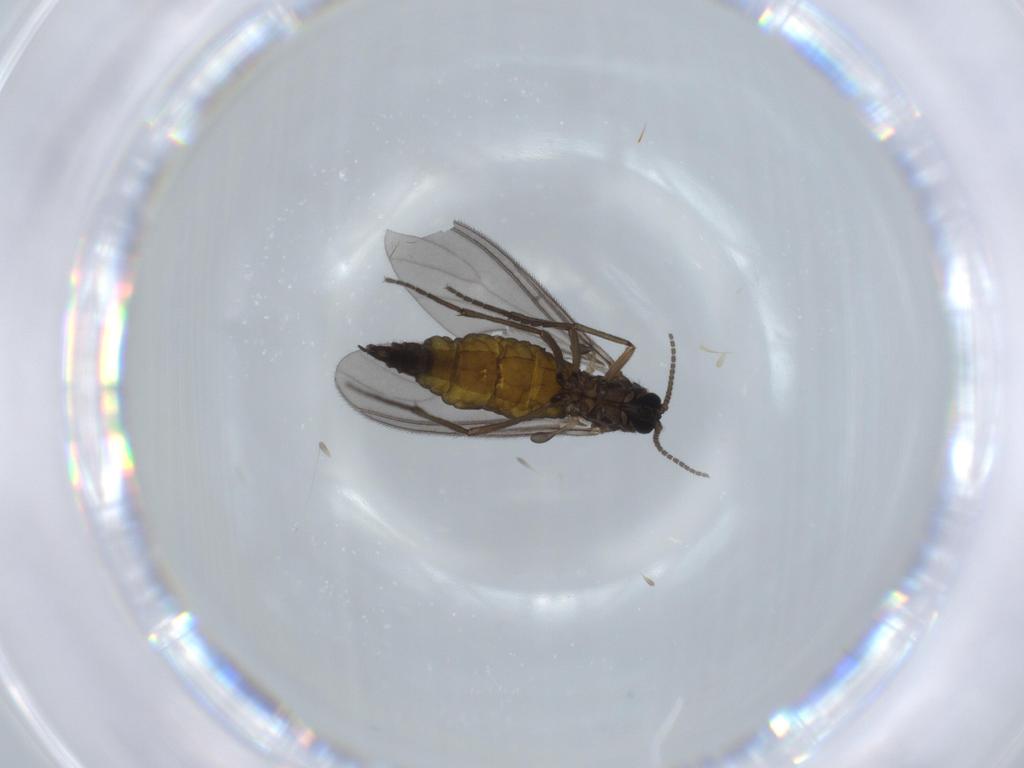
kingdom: Animalia
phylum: Arthropoda
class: Insecta
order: Diptera
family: Sciaridae
